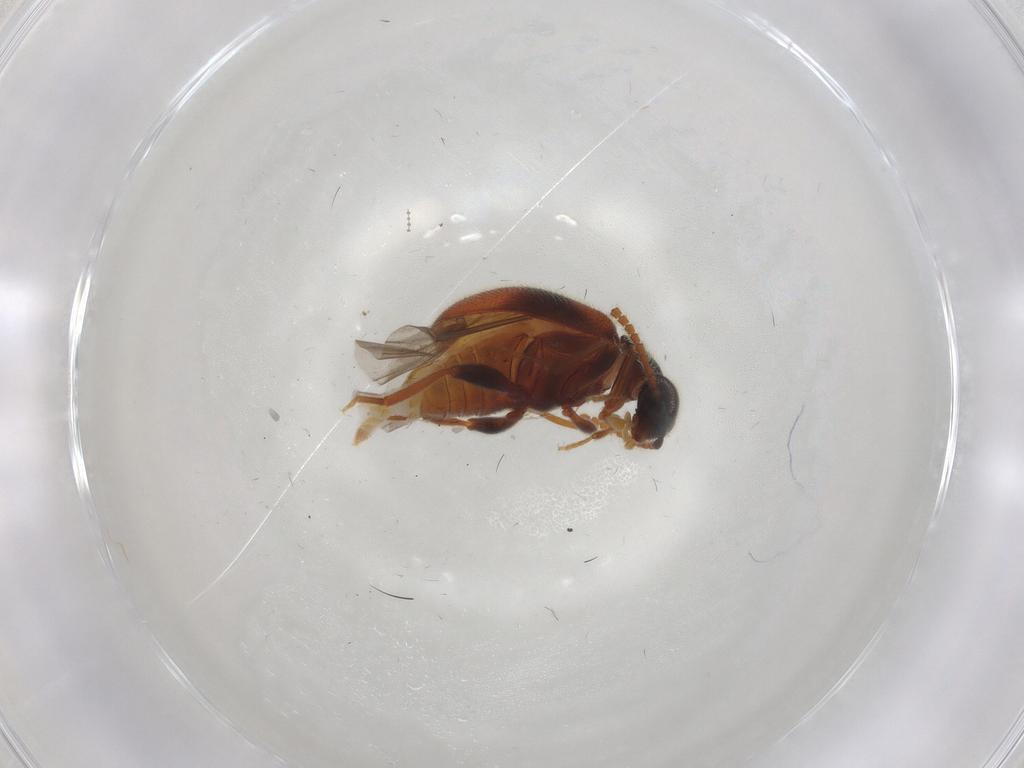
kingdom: Animalia
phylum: Arthropoda
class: Insecta
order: Coleoptera
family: Aderidae
